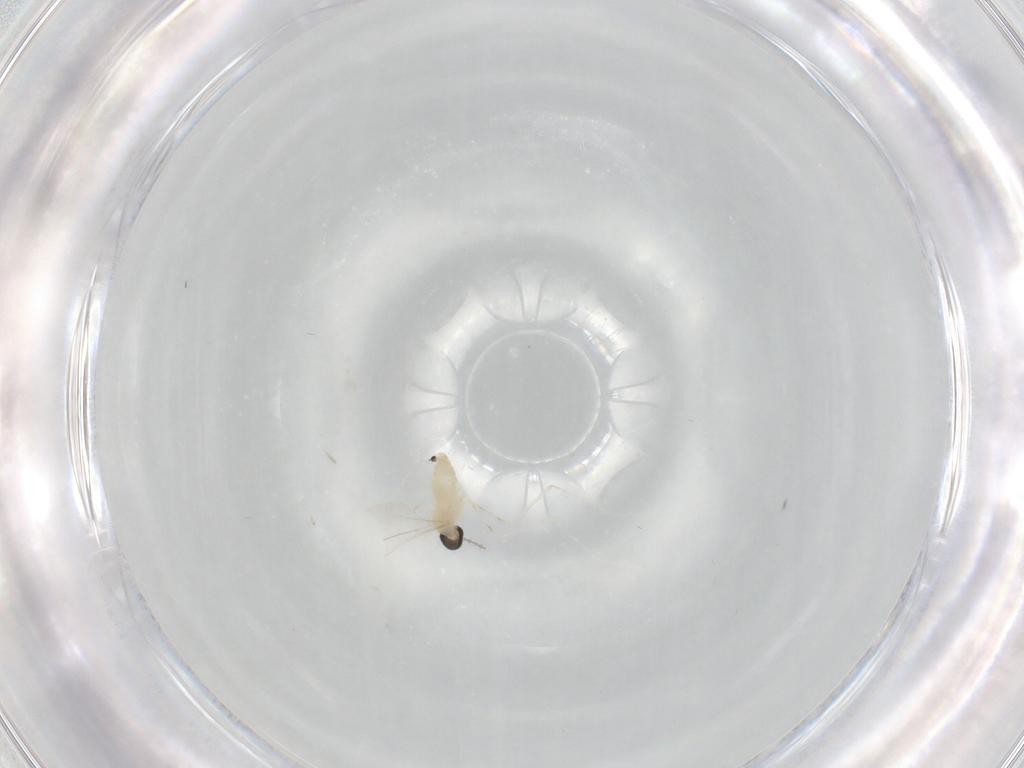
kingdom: Animalia
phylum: Arthropoda
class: Insecta
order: Diptera
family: Cecidomyiidae
